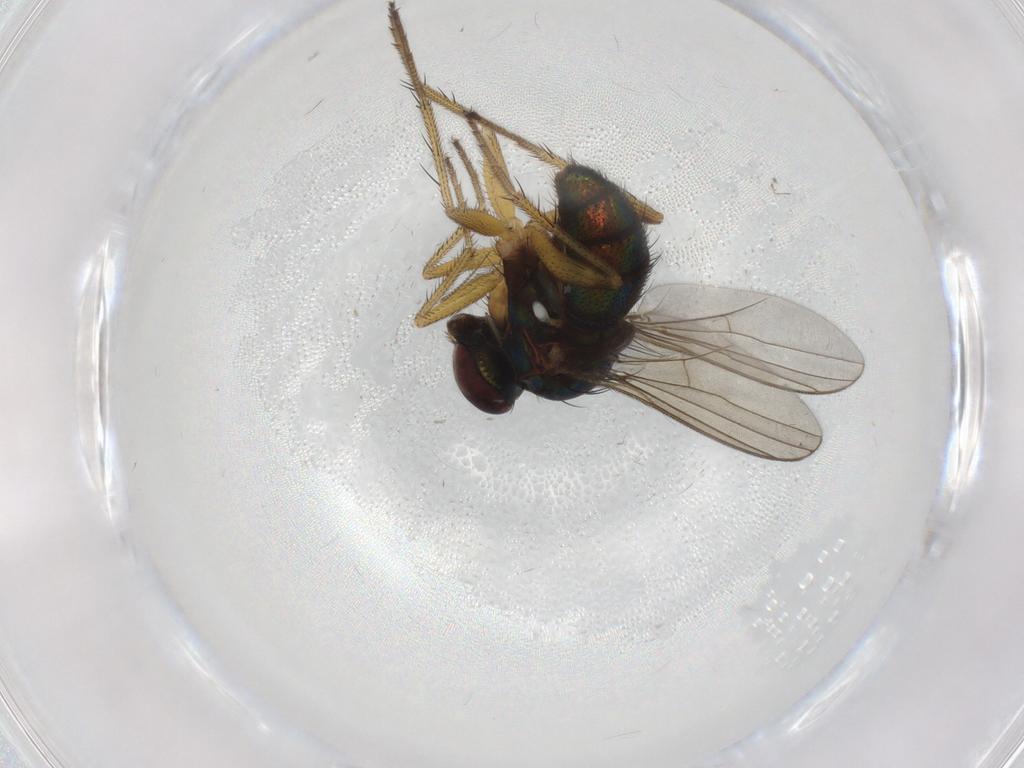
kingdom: Animalia
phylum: Arthropoda
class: Insecta
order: Diptera
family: Dolichopodidae
